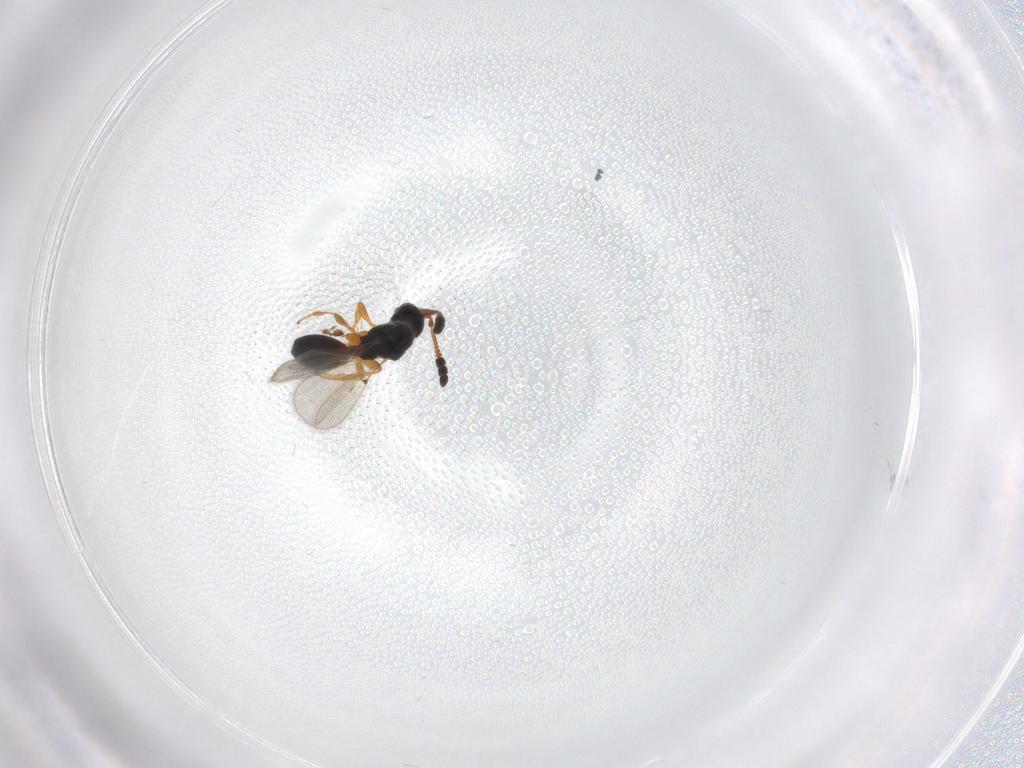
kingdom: Animalia
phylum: Arthropoda
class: Insecta
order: Hymenoptera
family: Diapriidae
